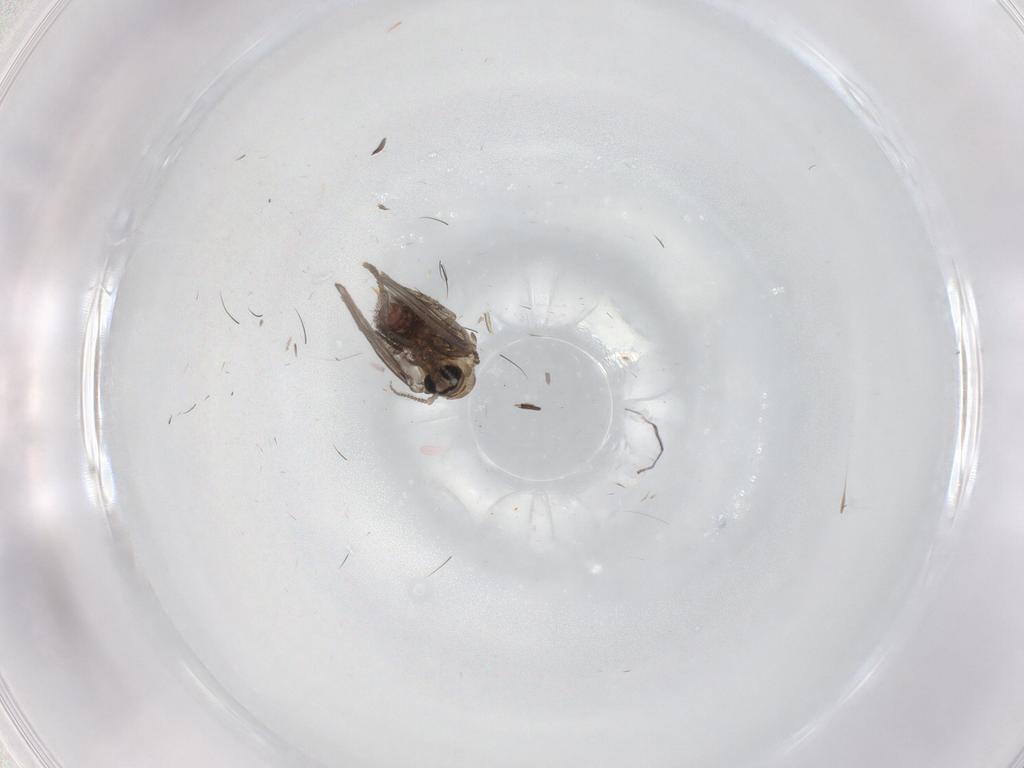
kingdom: Animalia
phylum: Arthropoda
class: Insecta
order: Diptera
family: Psychodidae
